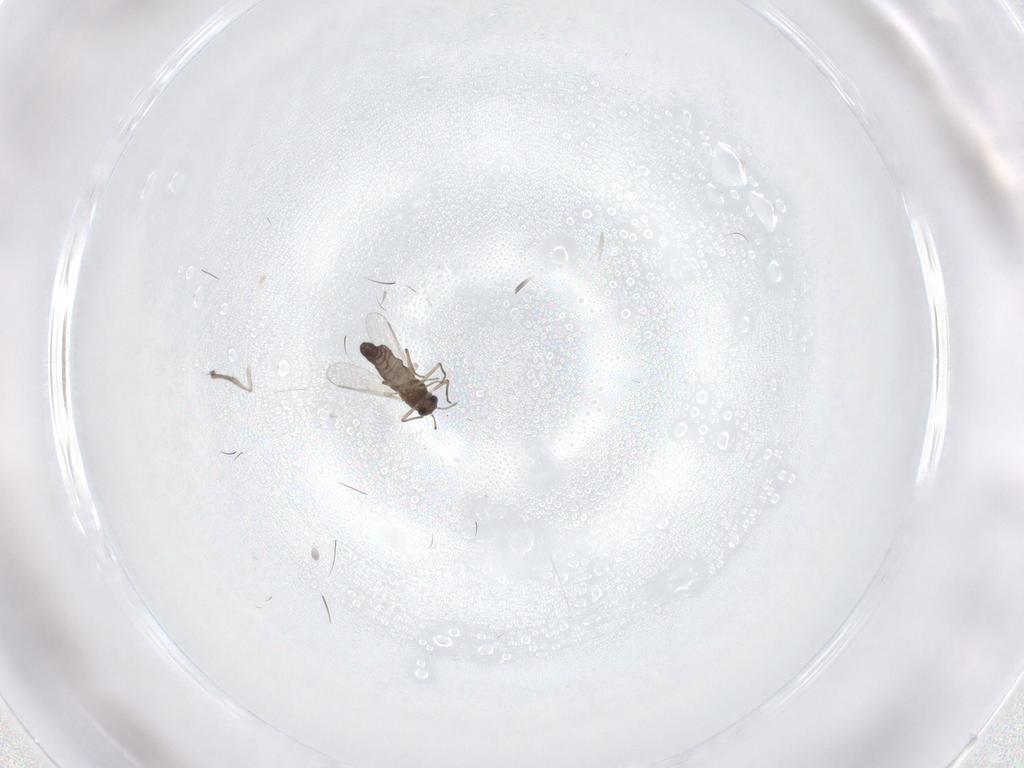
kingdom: Animalia
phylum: Arthropoda
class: Insecta
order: Diptera
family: Chironomidae
